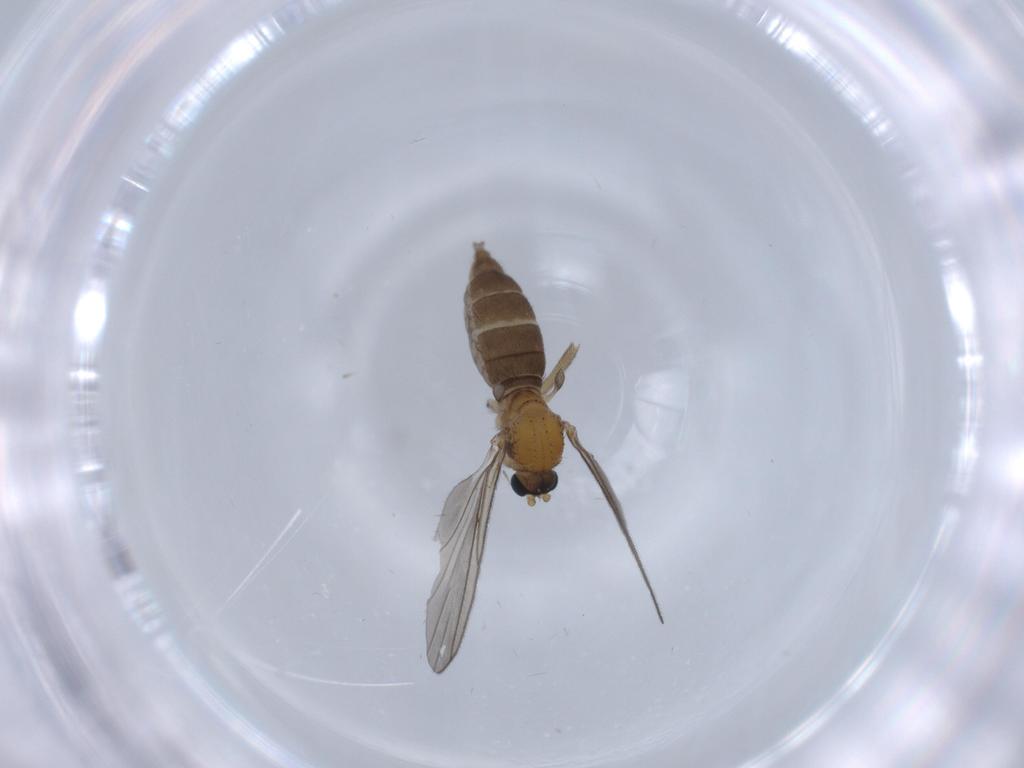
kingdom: Animalia
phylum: Arthropoda
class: Insecta
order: Diptera
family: Sciaridae
